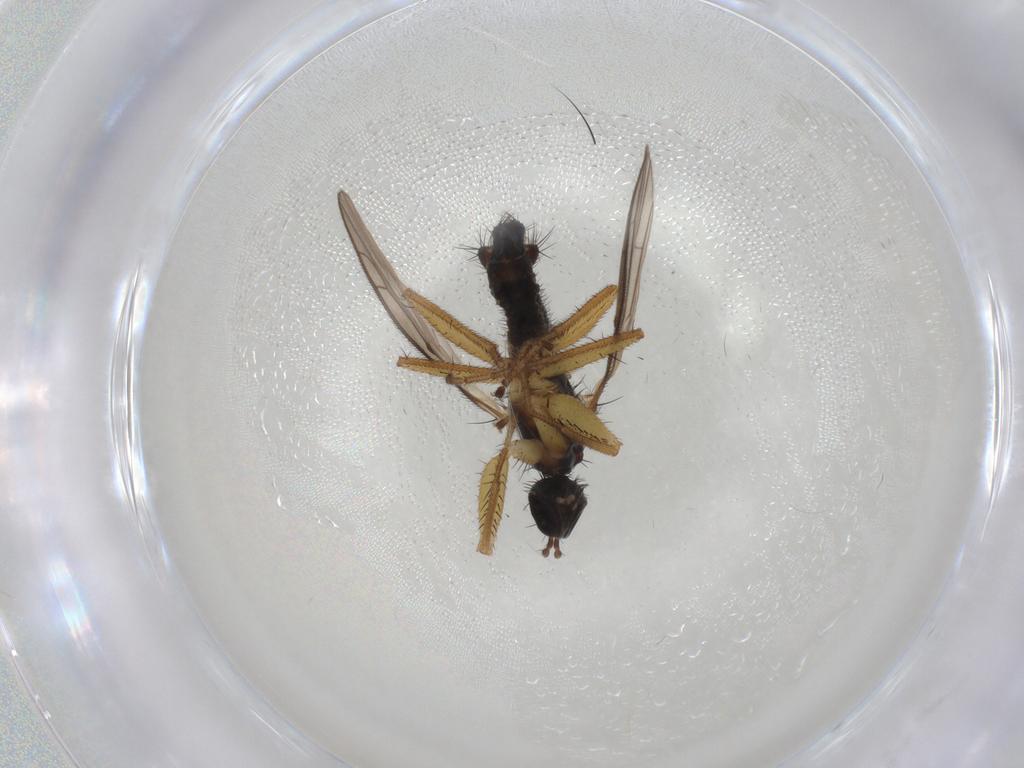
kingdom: Animalia
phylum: Arthropoda
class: Insecta
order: Diptera
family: Empididae
